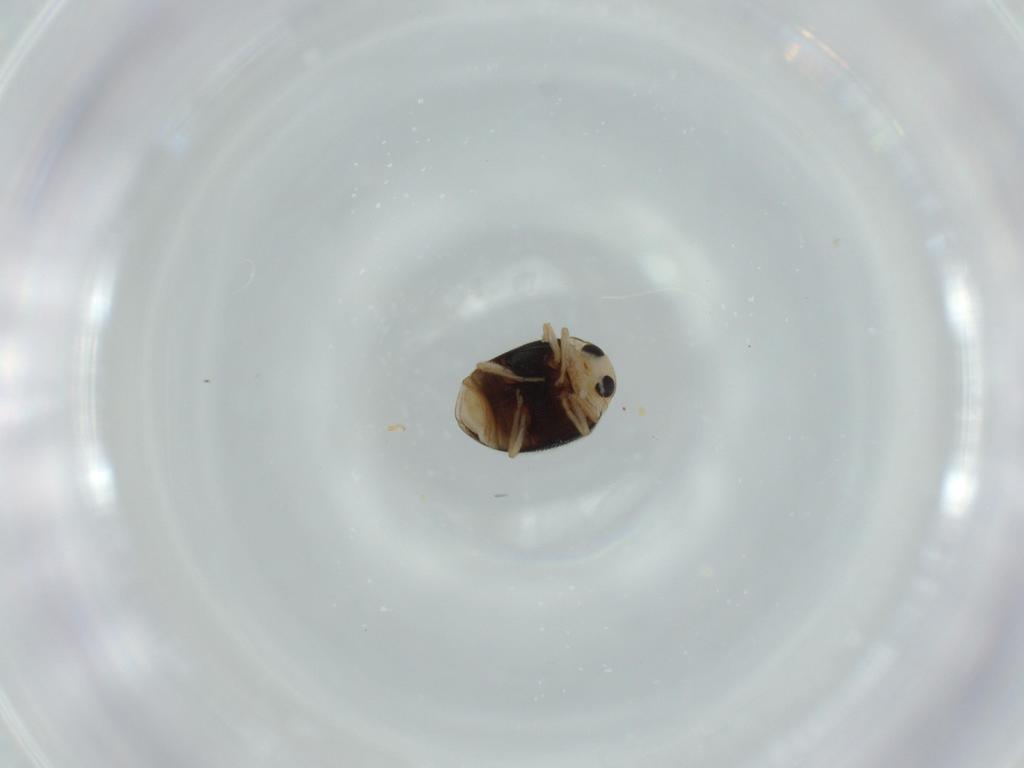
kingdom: Animalia
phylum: Arthropoda
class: Insecta
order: Coleoptera
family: Coccinellidae
